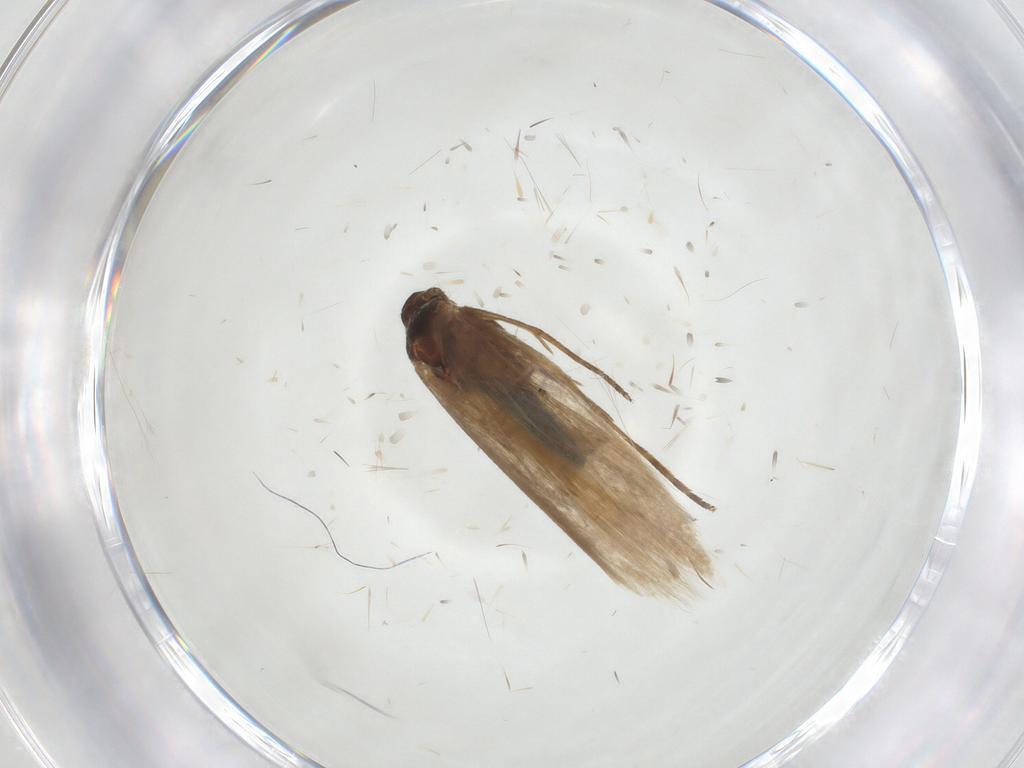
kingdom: Animalia
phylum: Arthropoda
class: Insecta
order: Lepidoptera
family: Scythrididae
